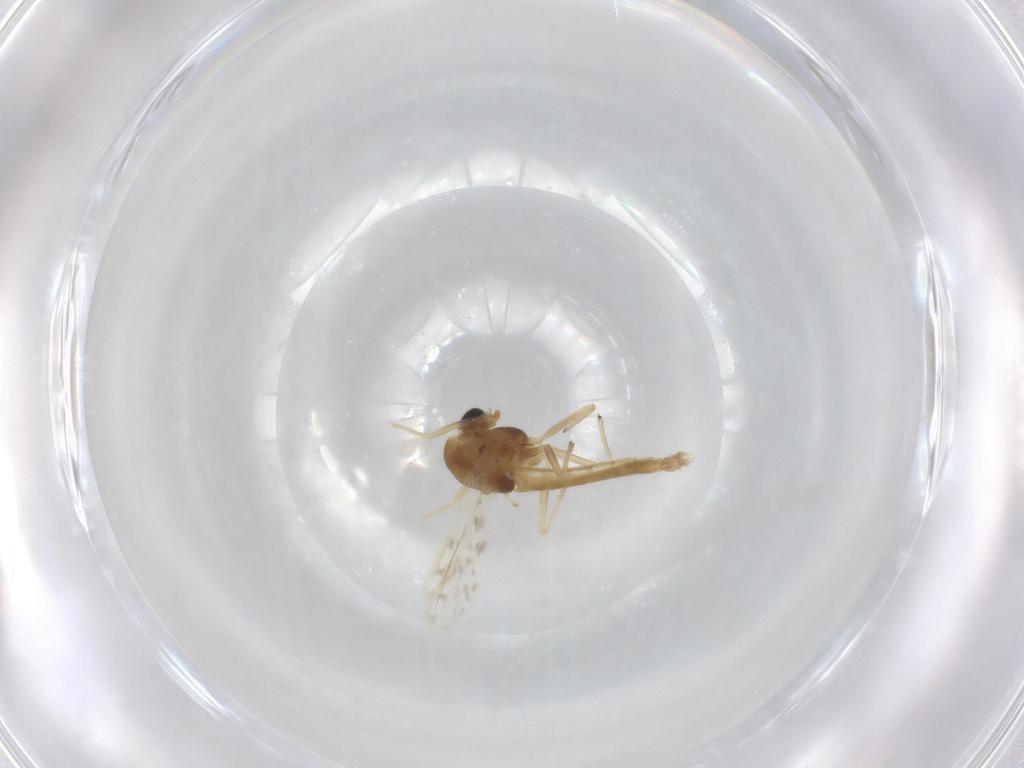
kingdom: Animalia
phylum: Arthropoda
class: Insecta
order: Diptera
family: Chironomidae
